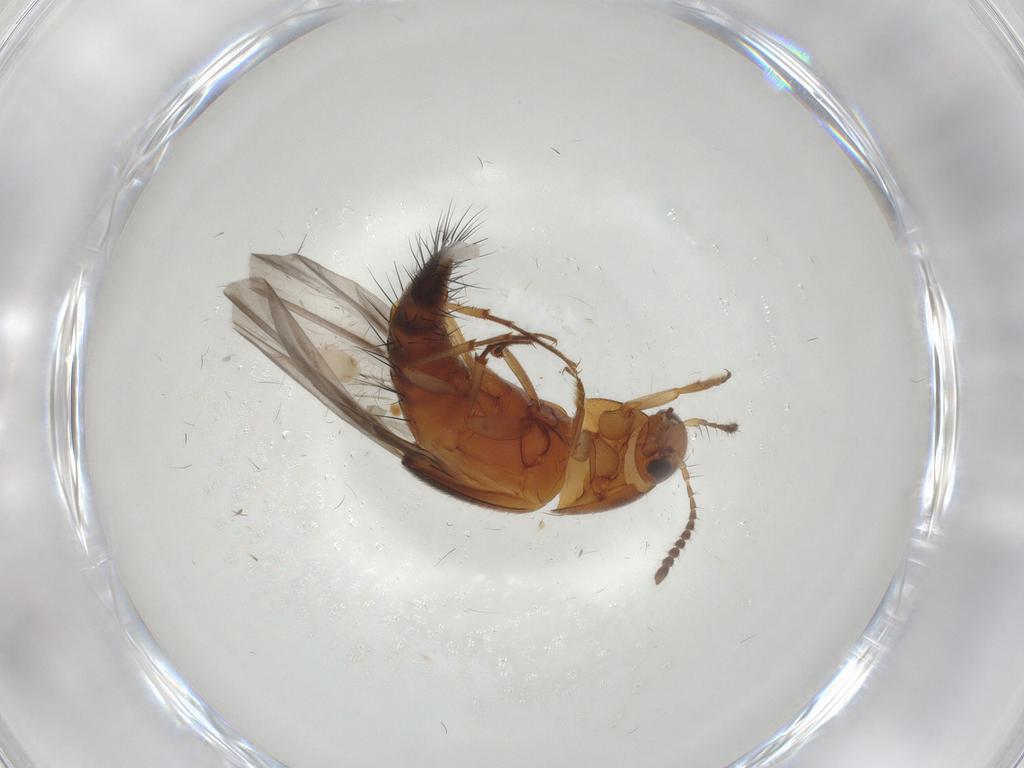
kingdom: Animalia
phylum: Arthropoda
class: Insecta
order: Coleoptera
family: Staphylinidae
